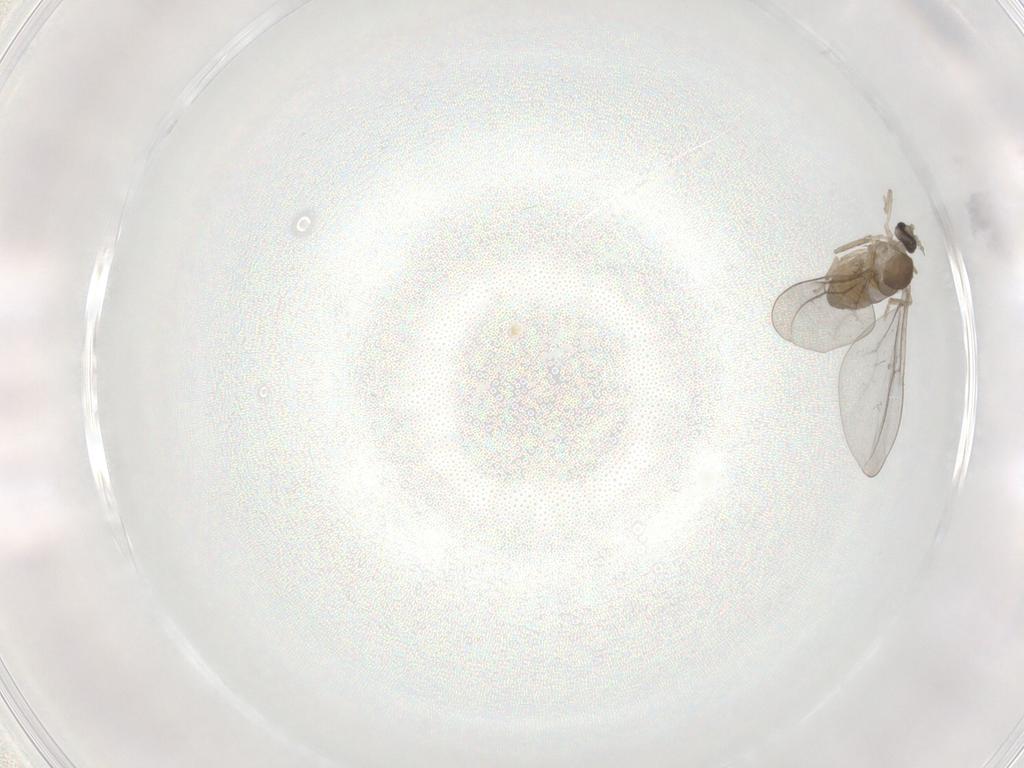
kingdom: Animalia
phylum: Arthropoda
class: Insecta
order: Diptera
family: Cecidomyiidae
